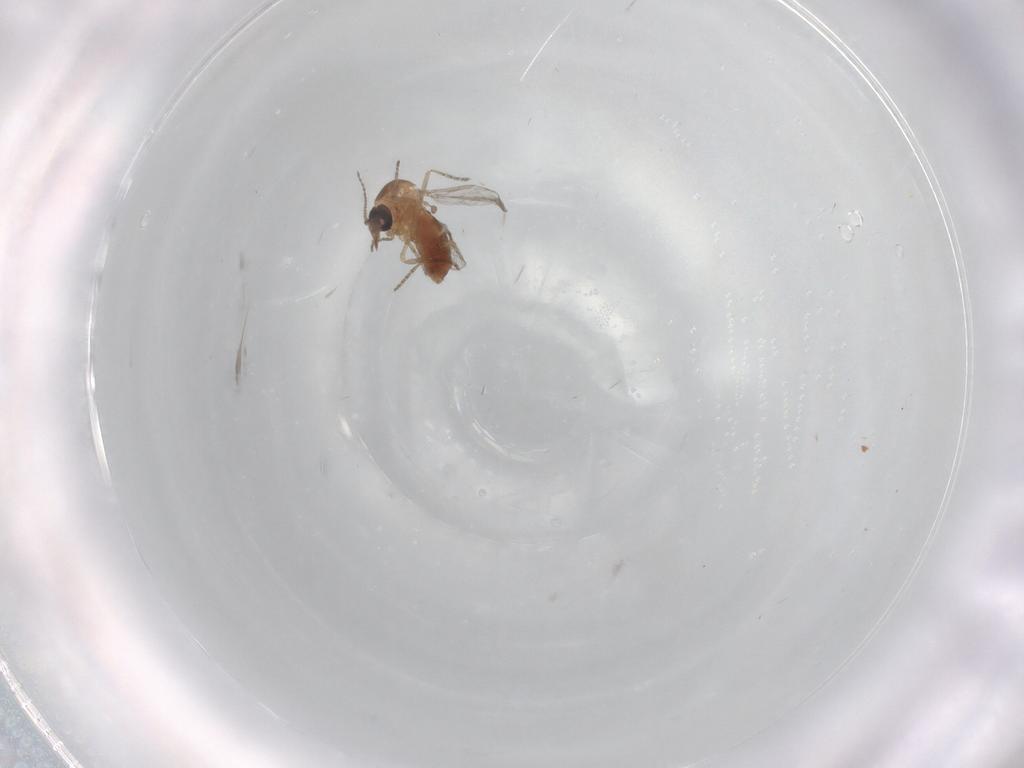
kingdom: Animalia
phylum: Arthropoda
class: Insecta
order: Diptera
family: Psychodidae
